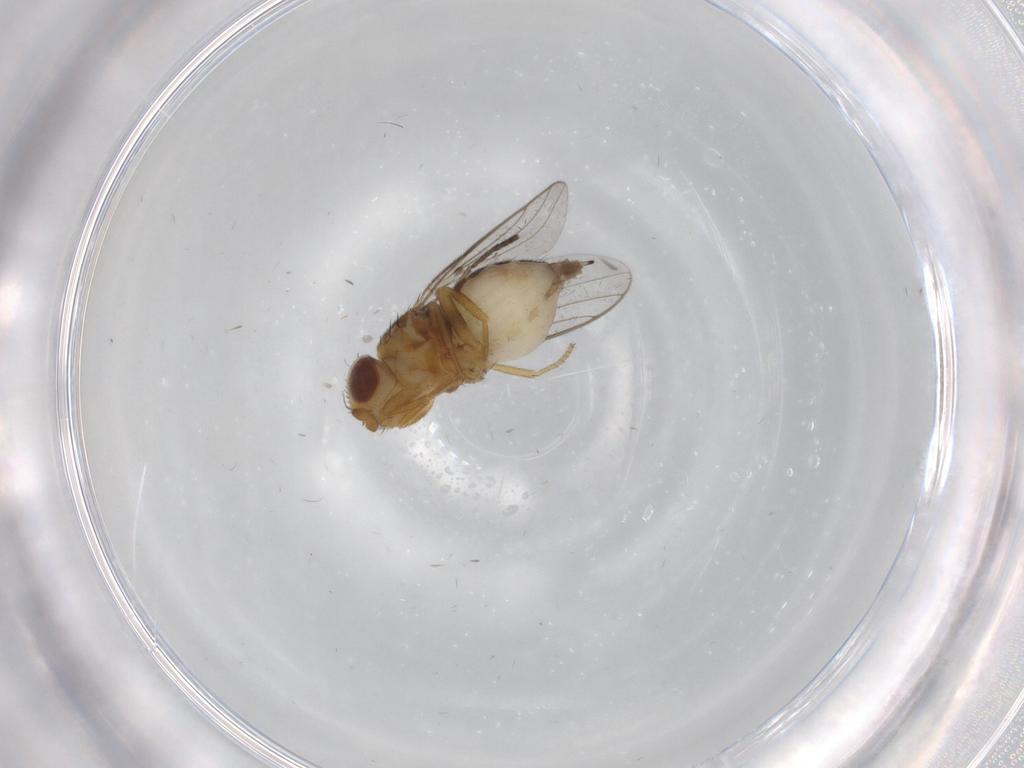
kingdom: Animalia
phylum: Arthropoda
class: Insecta
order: Diptera
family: Chloropidae
